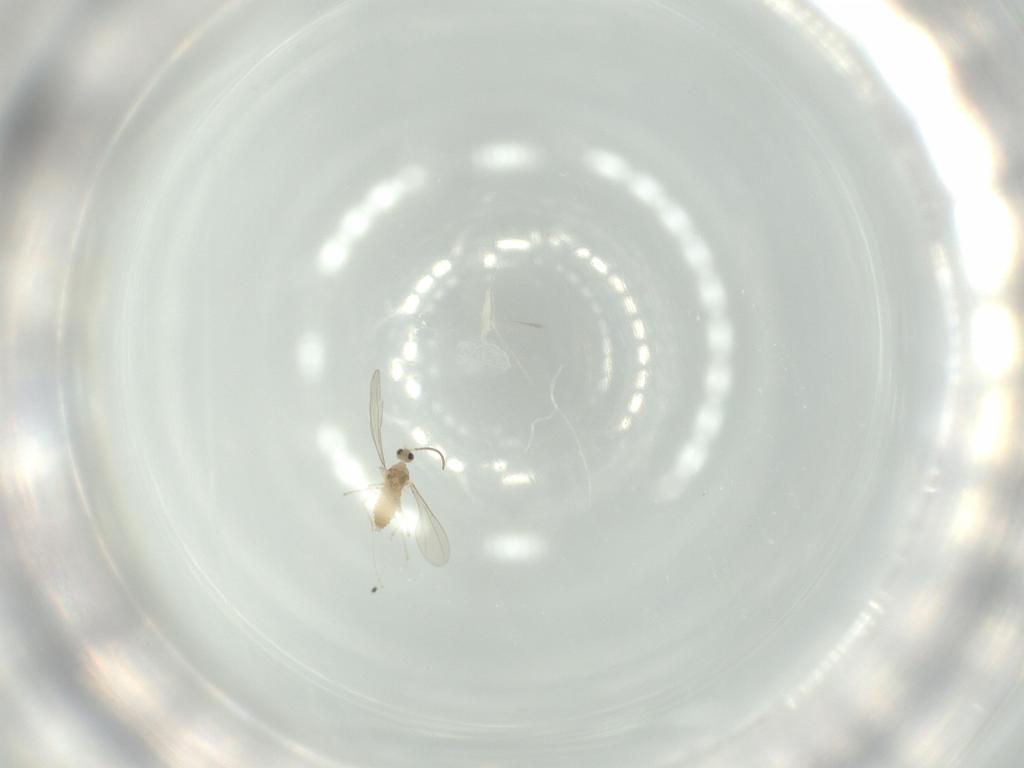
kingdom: Animalia
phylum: Arthropoda
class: Insecta
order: Diptera
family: Cecidomyiidae
